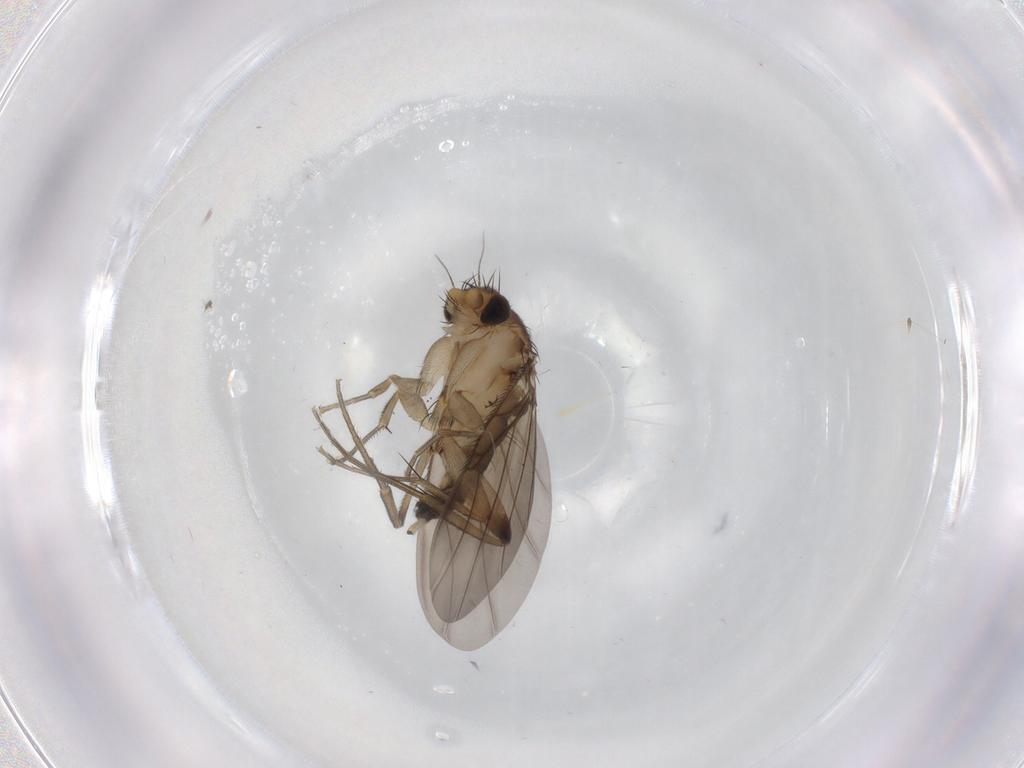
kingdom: Animalia
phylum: Arthropoda
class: Insecta
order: Diptera
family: Phoridae
